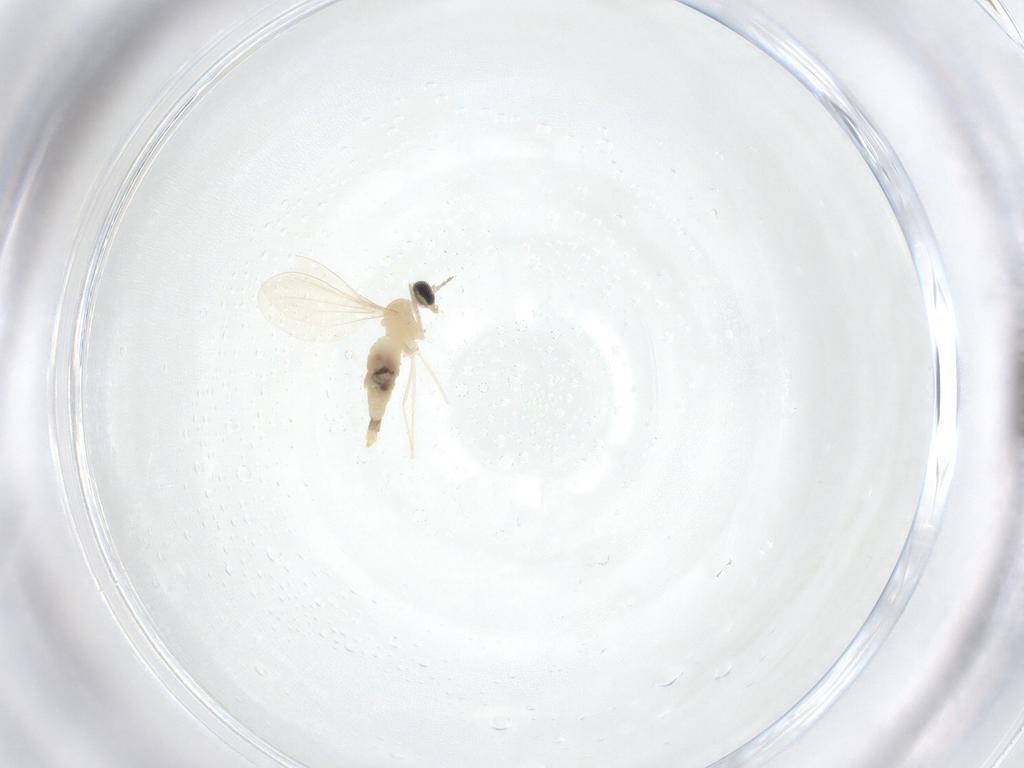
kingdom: Animalia
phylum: Arthropoda
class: Insecta
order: Diptera
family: Cecidomyiidae
